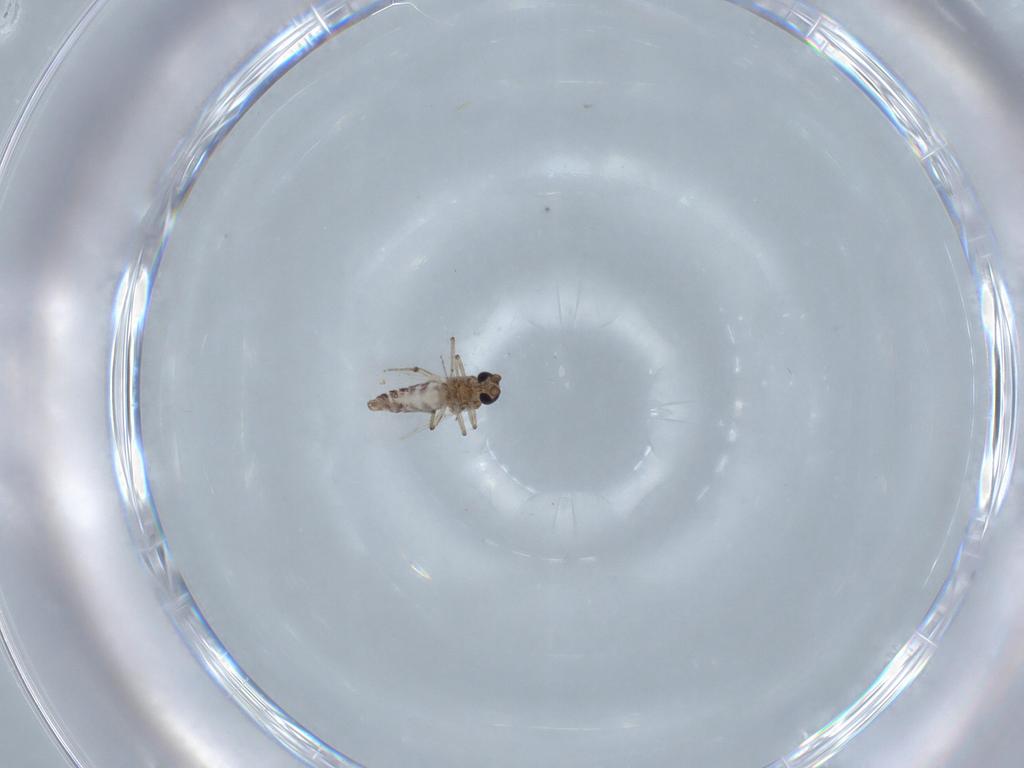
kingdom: Animalia
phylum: Arthropoda
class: Insecta
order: Diptera
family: Ceratopogonidae
